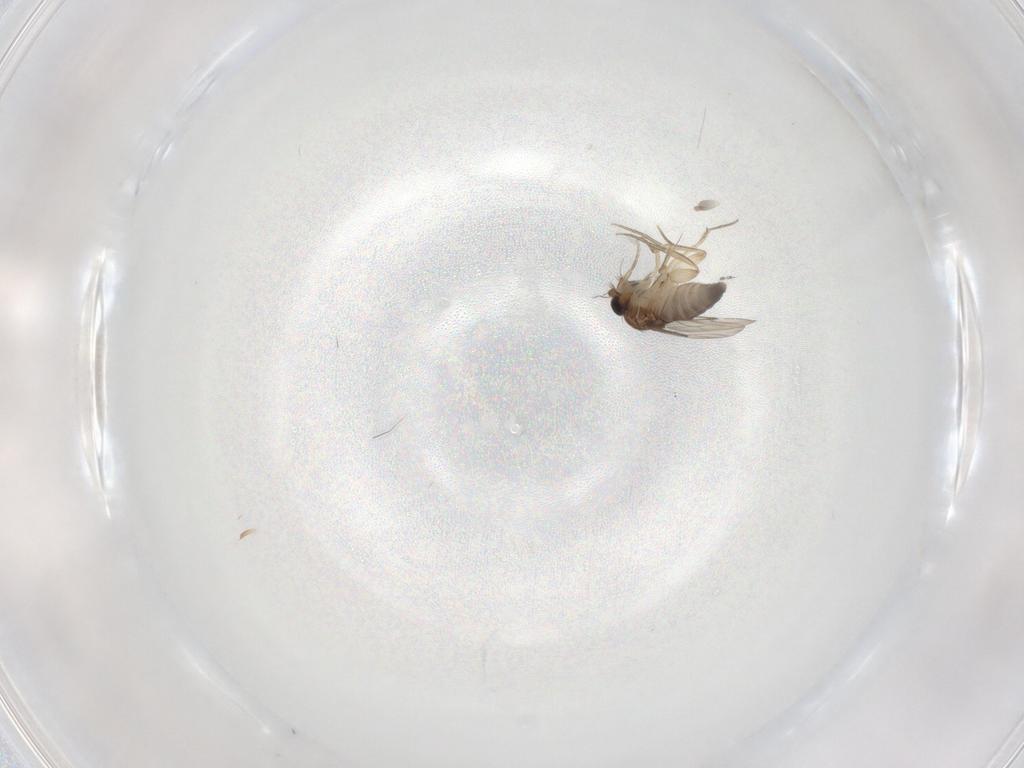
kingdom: Animalia
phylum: Arthropoda
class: Insecta
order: Diptera
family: Phoridae
